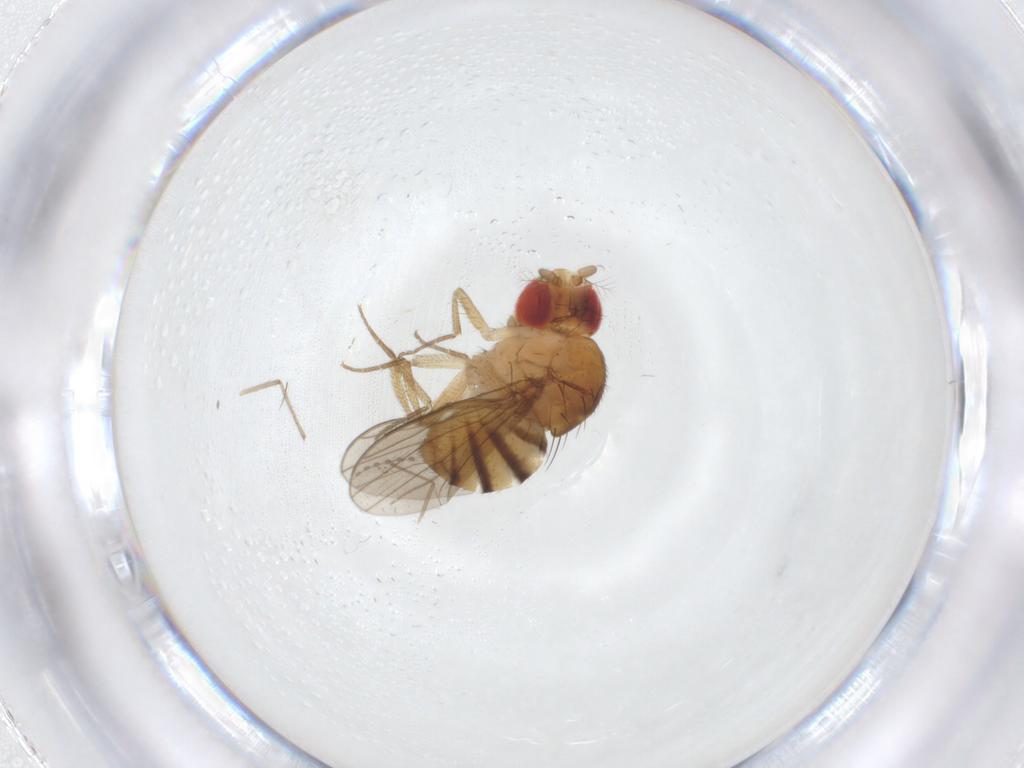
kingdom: Animalia
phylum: Arthropoda
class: Insecta
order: Diptera
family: Drosophilidae
